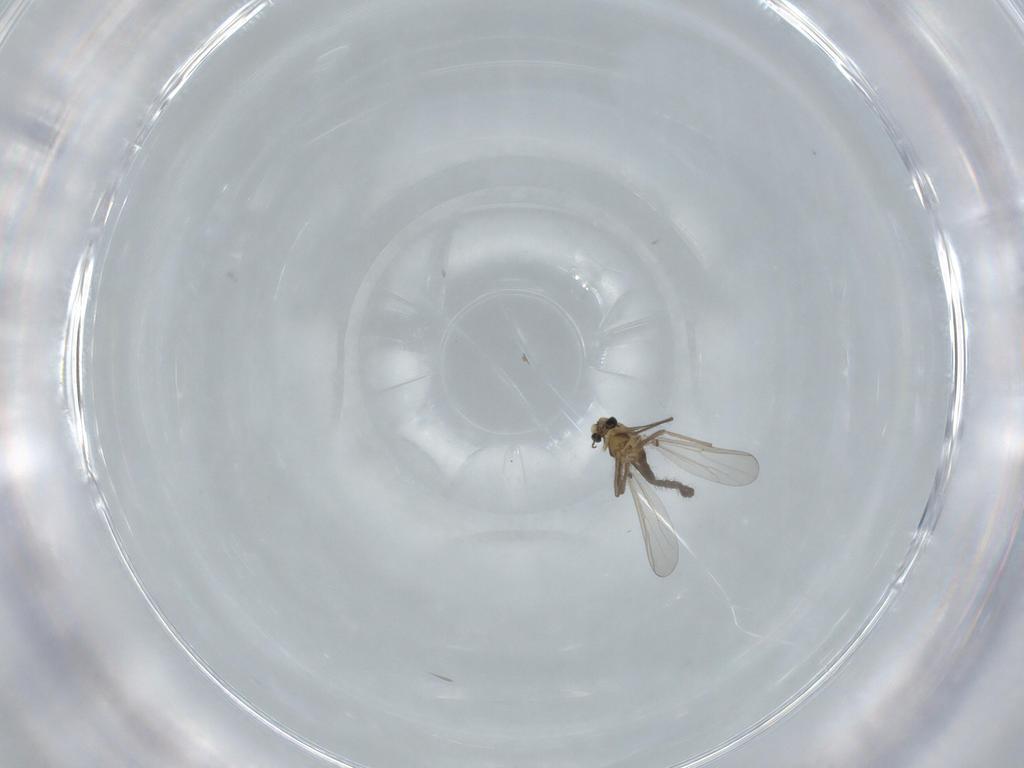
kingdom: Animalia
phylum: Arthropoda
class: Insecta
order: Diptera
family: Chironomidae
